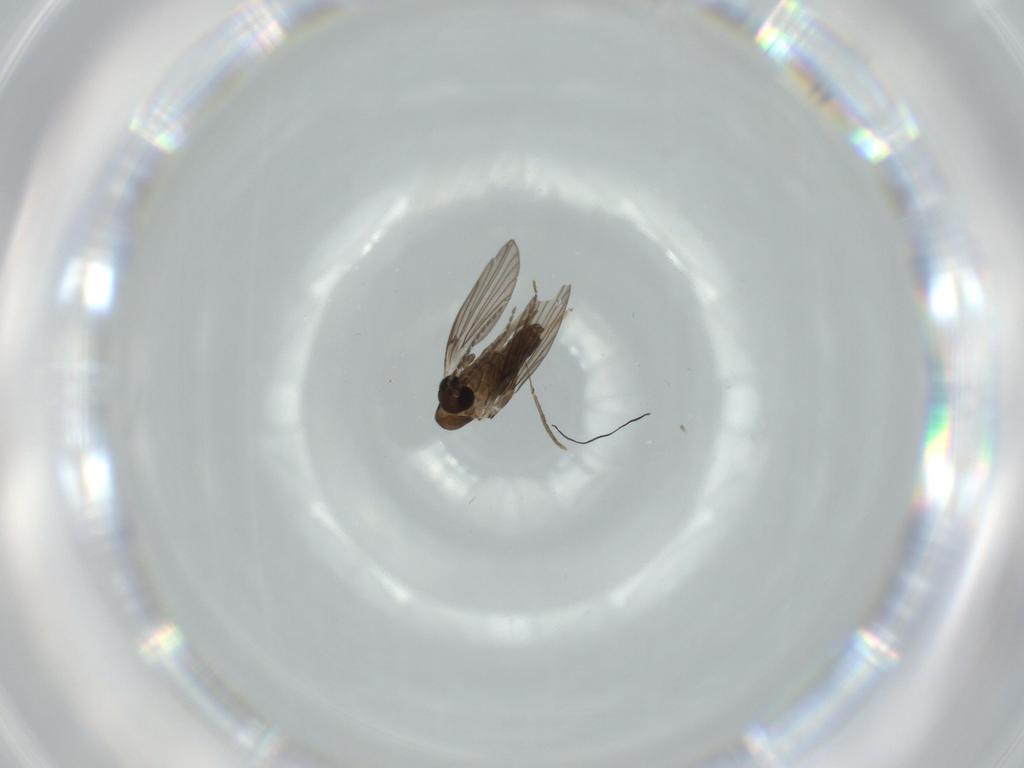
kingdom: Animalia
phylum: Arthropoda
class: Insecta
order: Diptera
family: Psychodidae
